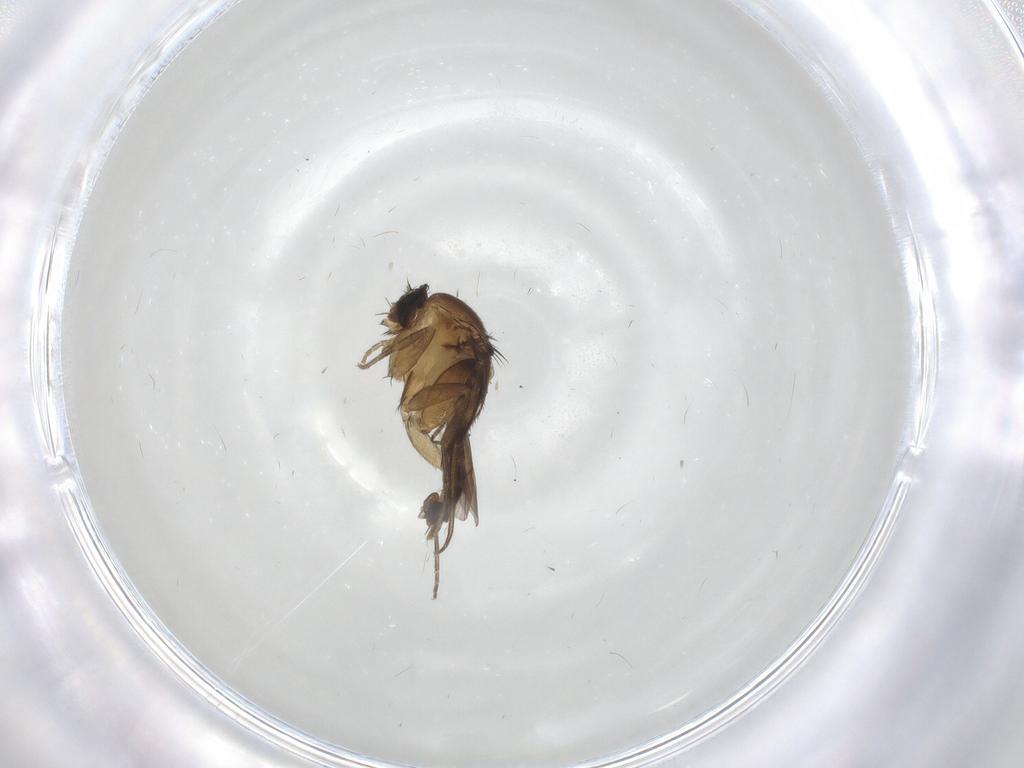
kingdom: Animalia
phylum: Arthropoda
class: Insecta
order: Diptera
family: Phoridae
